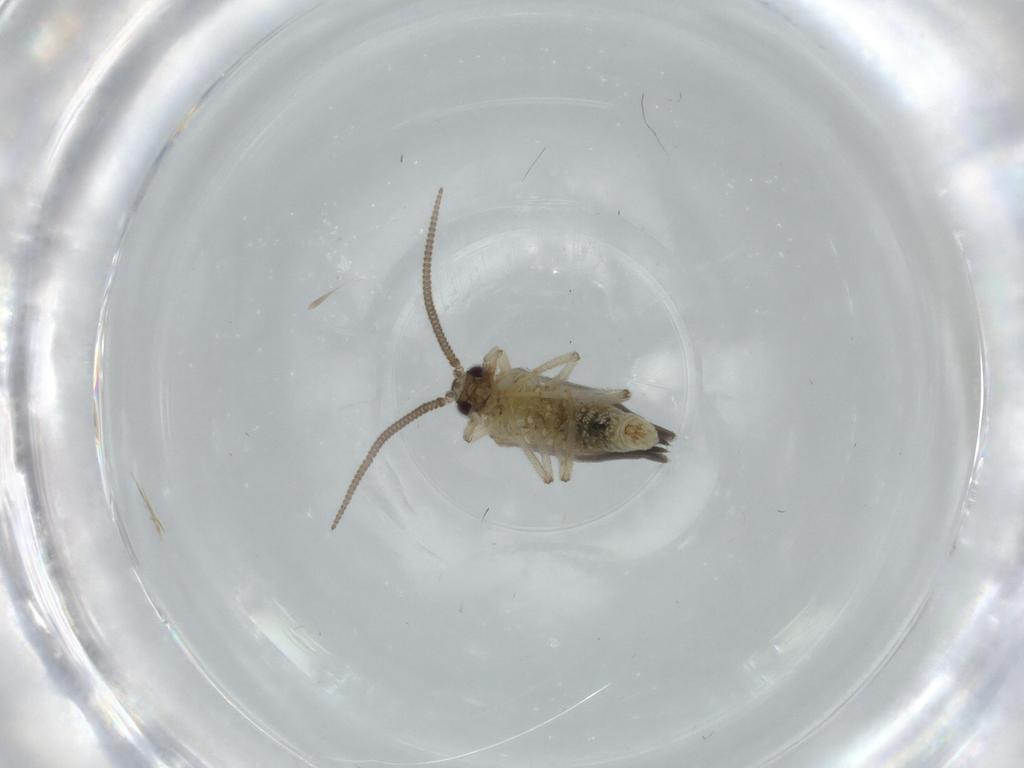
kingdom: Animalia
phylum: Arthropoda
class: Insecta
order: Neuroptera
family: Coniopterygidae
